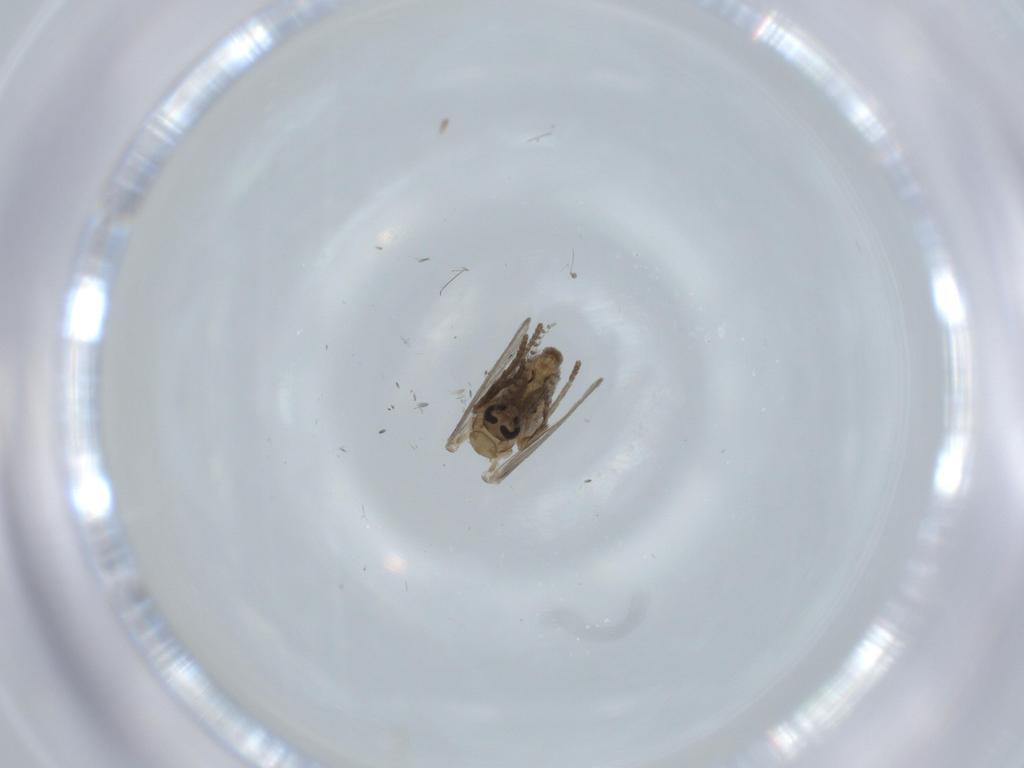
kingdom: Animalia
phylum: Arthropoda
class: Insecta
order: Diptera
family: Psychodidae
